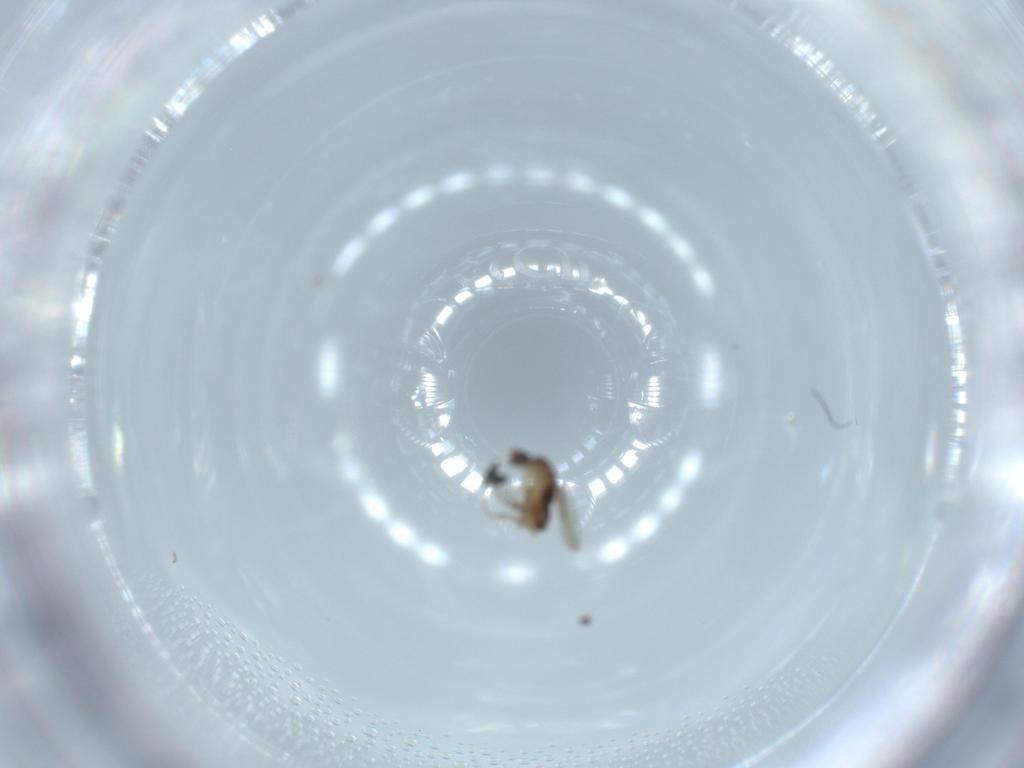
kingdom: Animalia
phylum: Arthropoda
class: Insecta
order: Diptera
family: Phoridae
